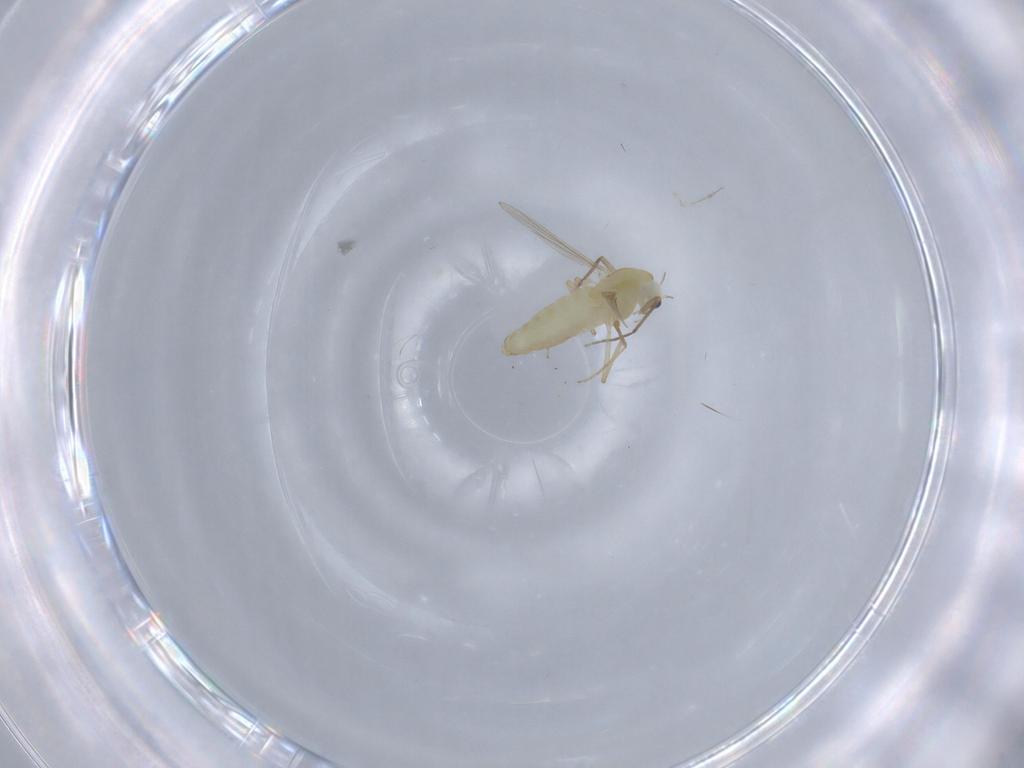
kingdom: Animalia
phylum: Arthropoda
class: Insecta
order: Diptera
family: Chironomidae
